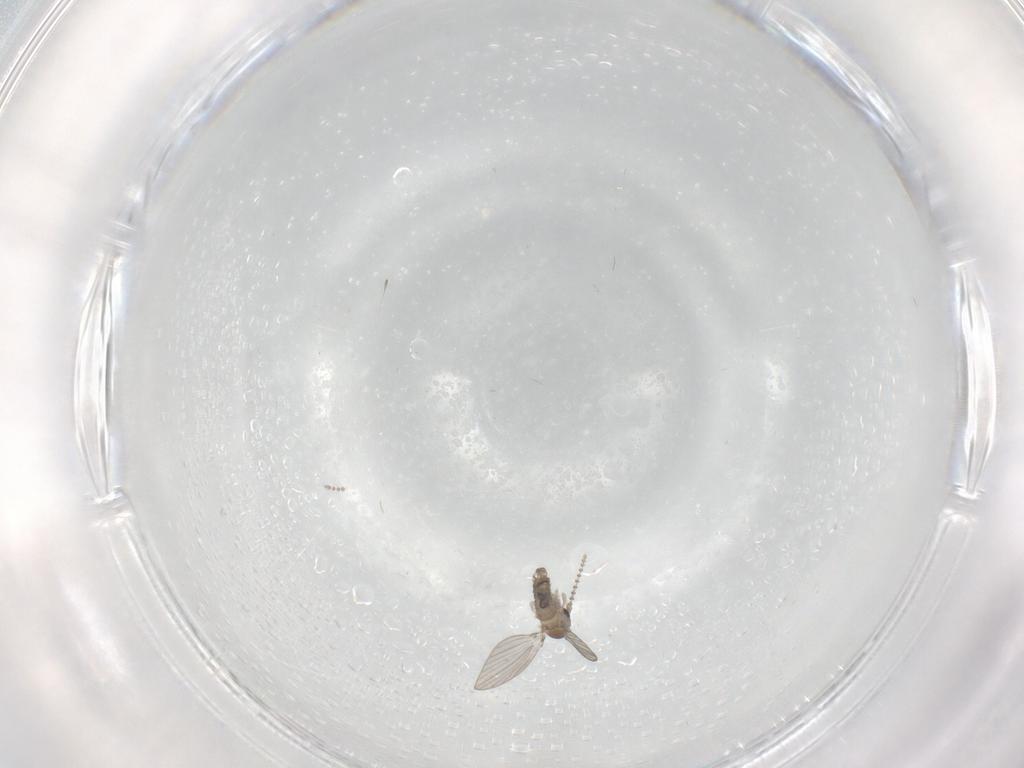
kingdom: Animalia
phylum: Arthropoda
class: Insecta
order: Diptera
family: Psychodidae
